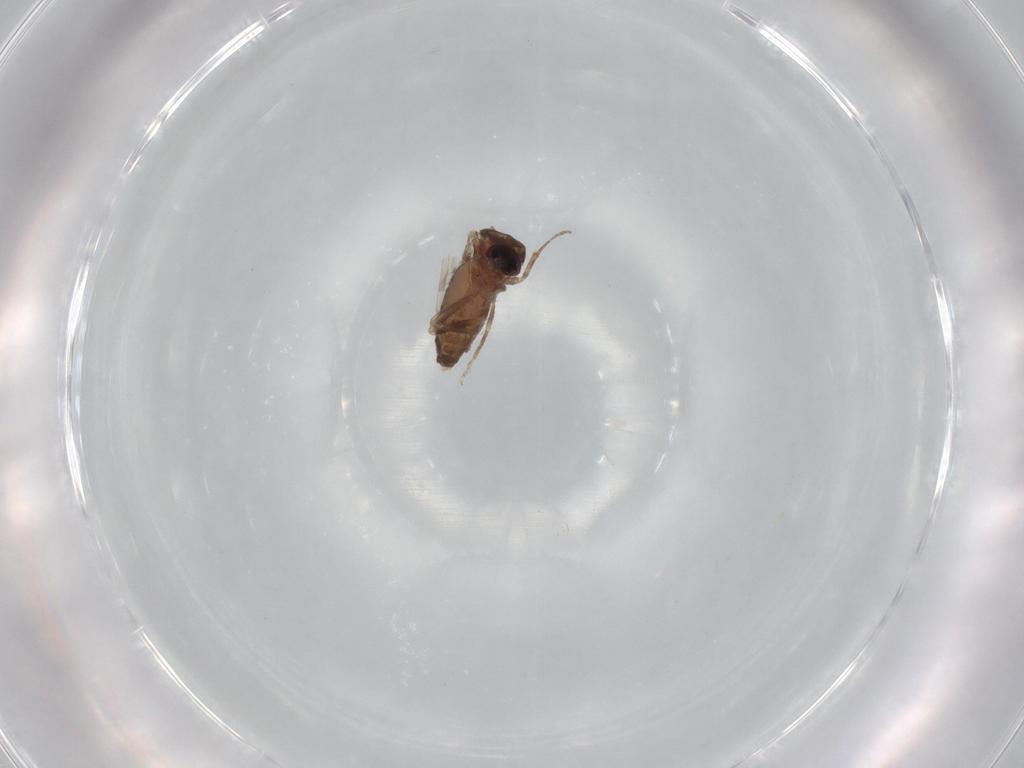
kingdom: Animalia
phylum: Arthropoda
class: Insecta
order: Diptera
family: Ceratopogonidae
